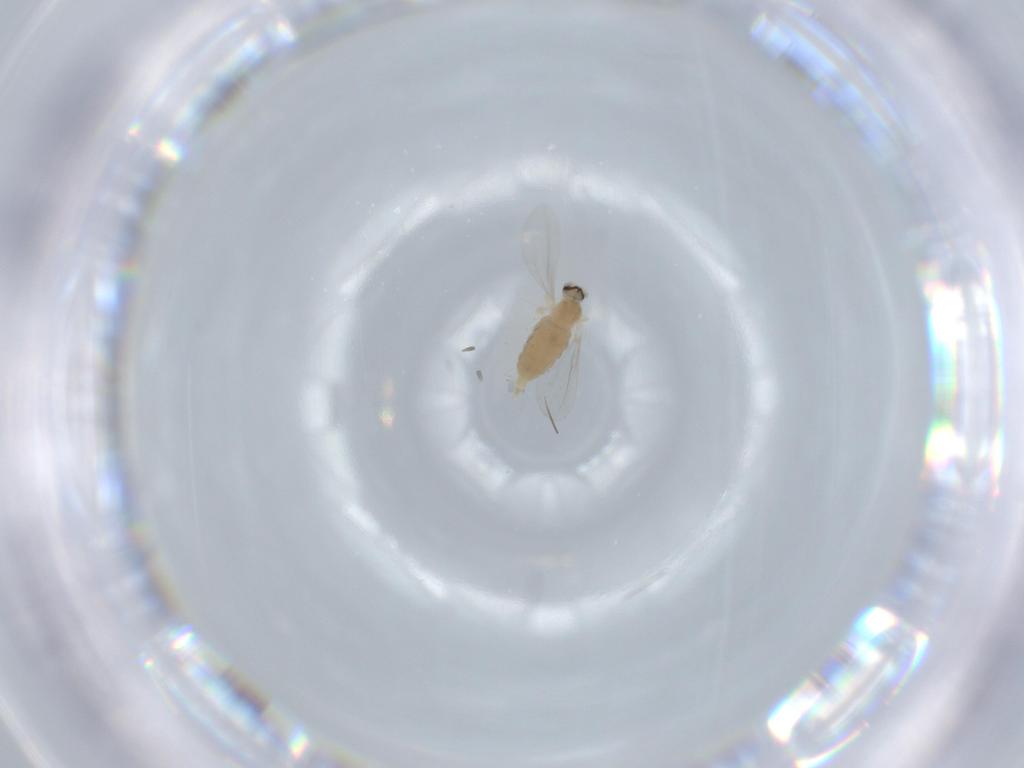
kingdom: Animalia
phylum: Arthropoda
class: Insecta
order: Diptera
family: Cecidomyiidae
